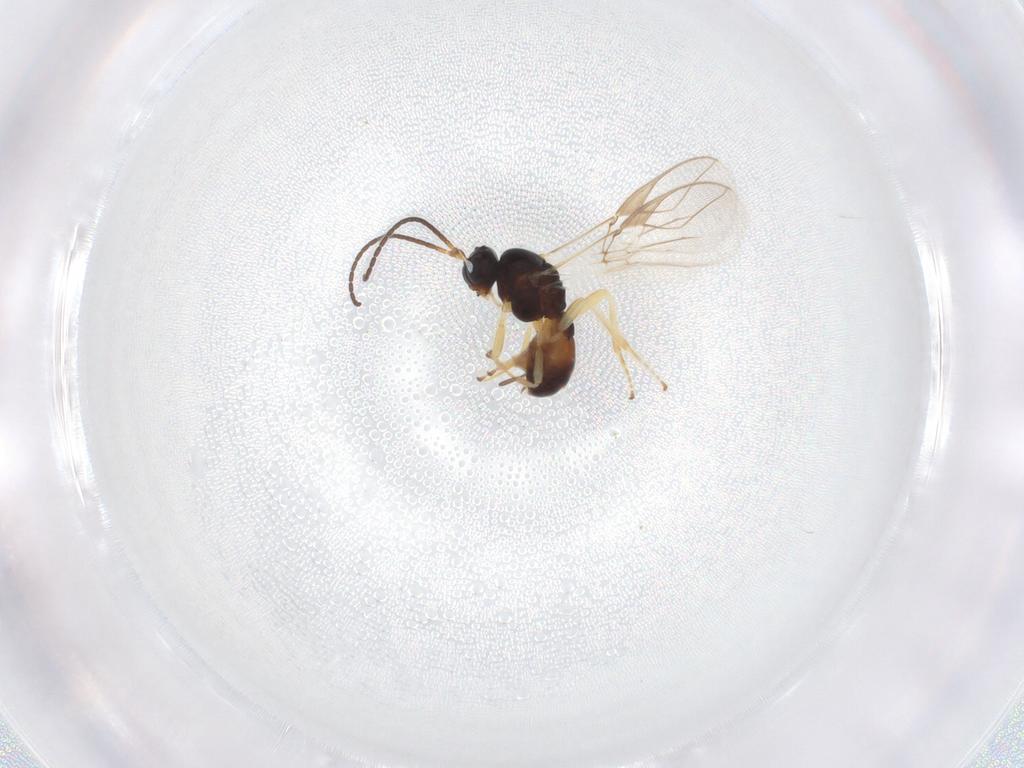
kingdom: Animalia
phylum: Arthropoda
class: Insecta
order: Hymenoptera
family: Braconidae
